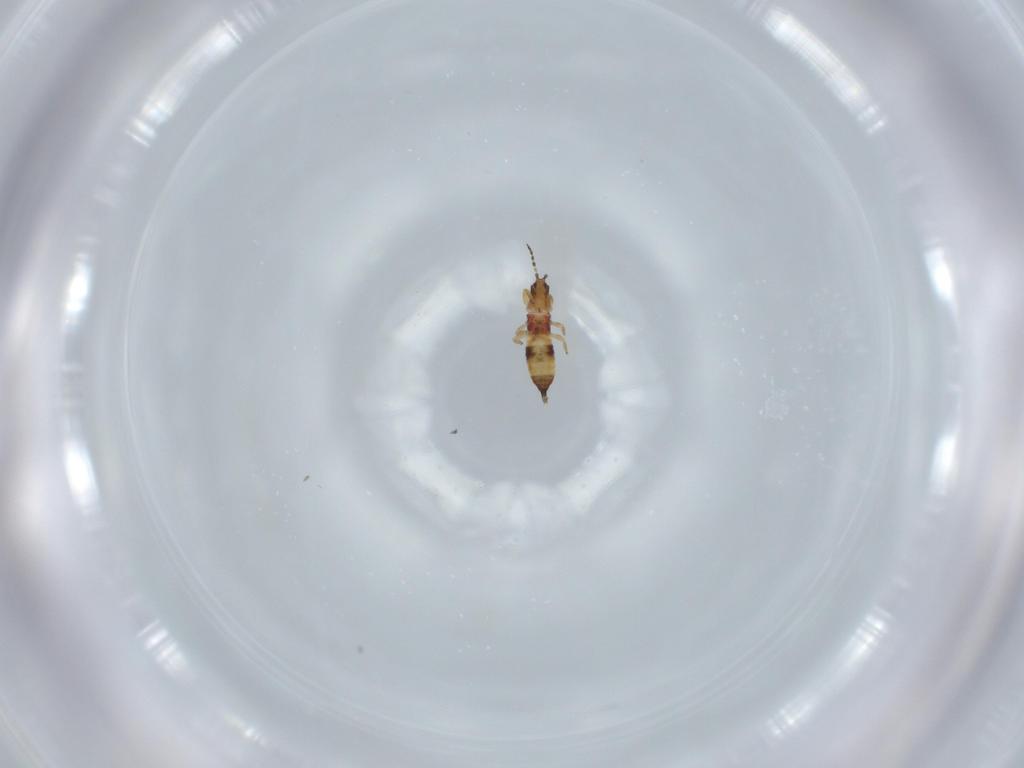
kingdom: Animalia
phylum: Arthropoda
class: Insecta
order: Thysanoptera
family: Phlaeothripidae
